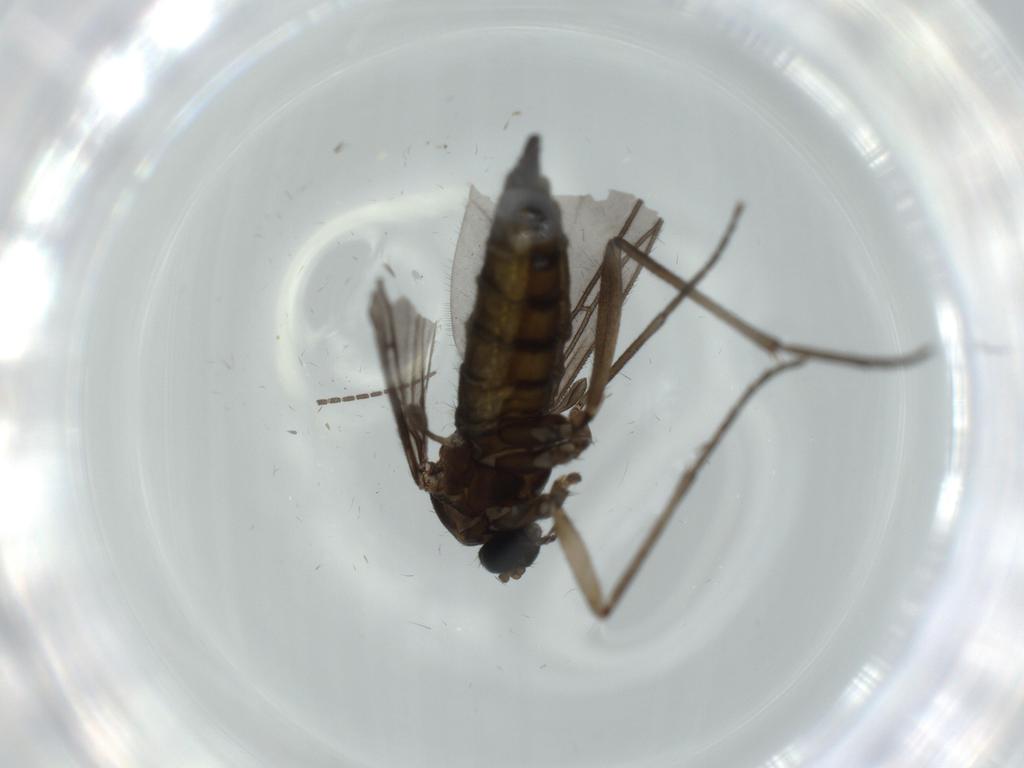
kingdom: Animalia
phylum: Arthropoda
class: Insecta
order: Diptera
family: Sciaridae
